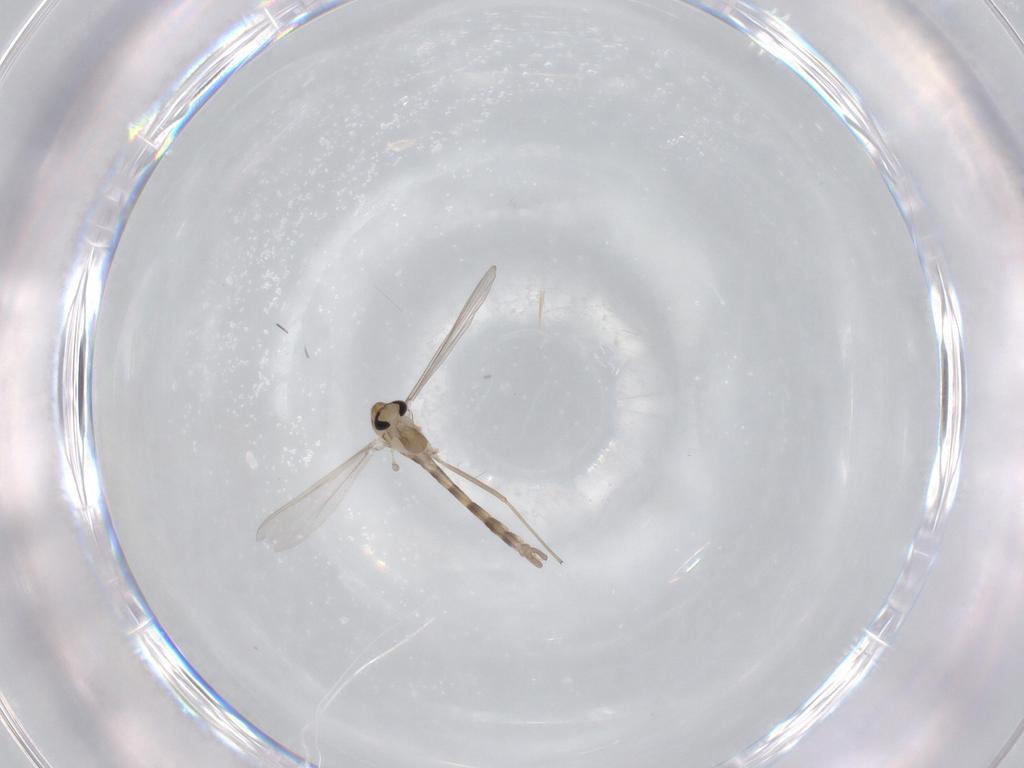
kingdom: Animalia
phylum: Arthropoda
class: Insecta
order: Diptera
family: Chironomidae
